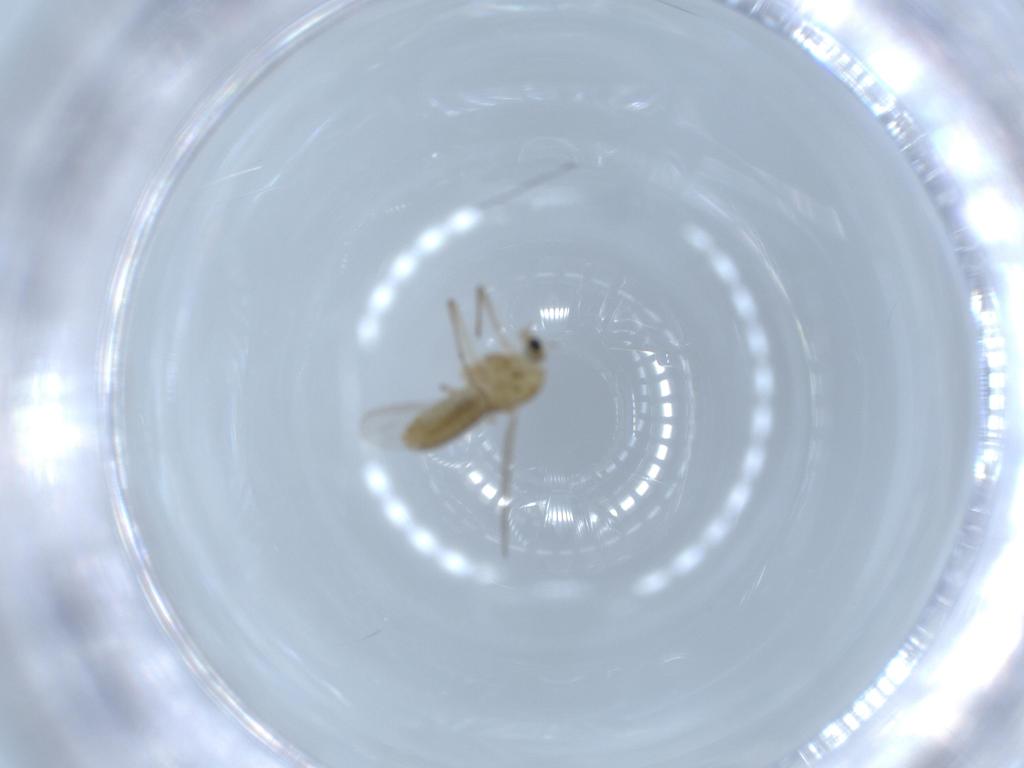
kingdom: Animalia
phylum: Arthropoda
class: Insecta
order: Diptera
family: Chironomidae
